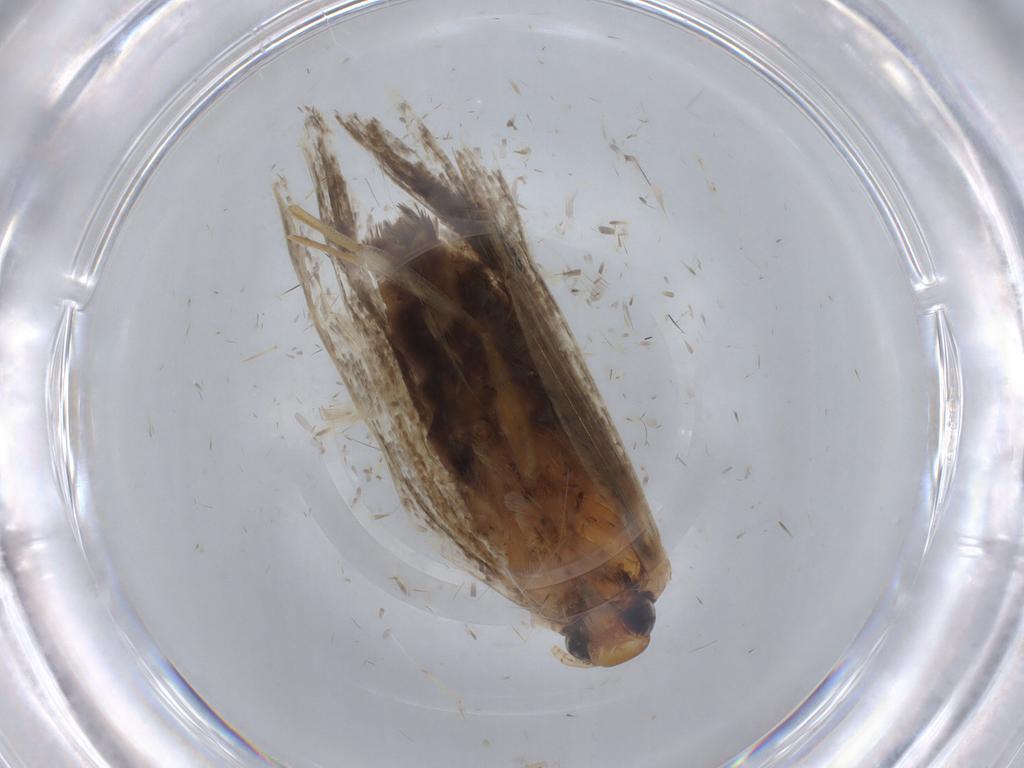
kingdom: Animalia
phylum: Arthropoda
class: Insecta
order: Lepidoptera
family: Lecithoceridae
